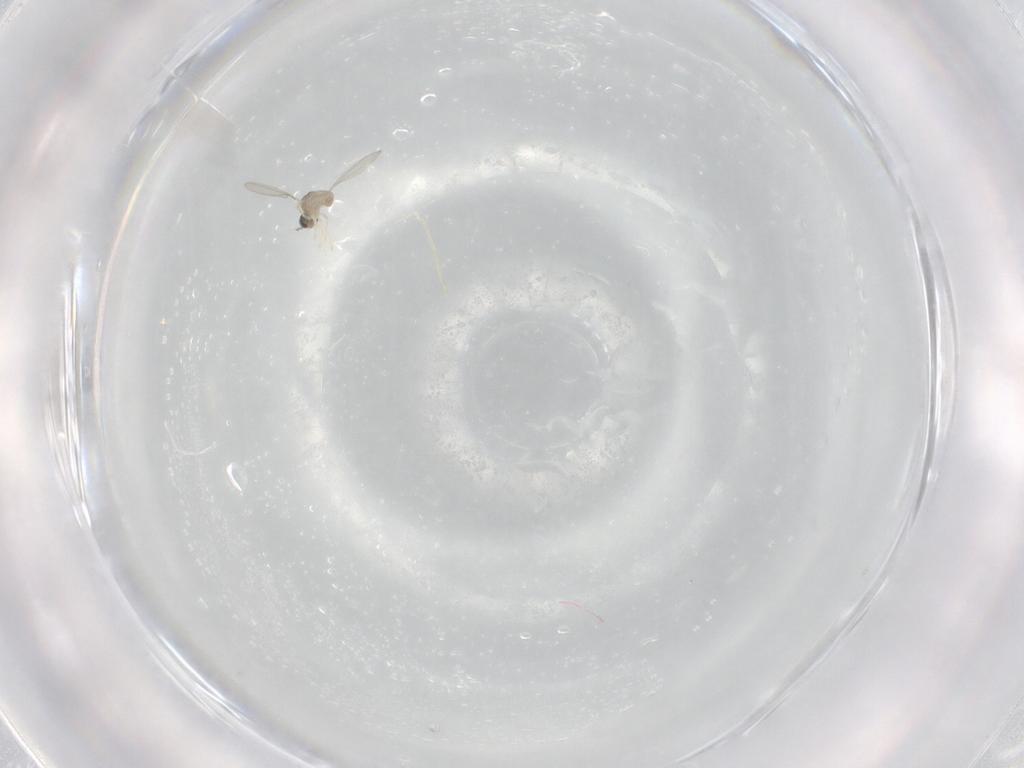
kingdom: Animalia
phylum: Arthropoda
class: Insecta
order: Diptera
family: Cecidomyiidae
